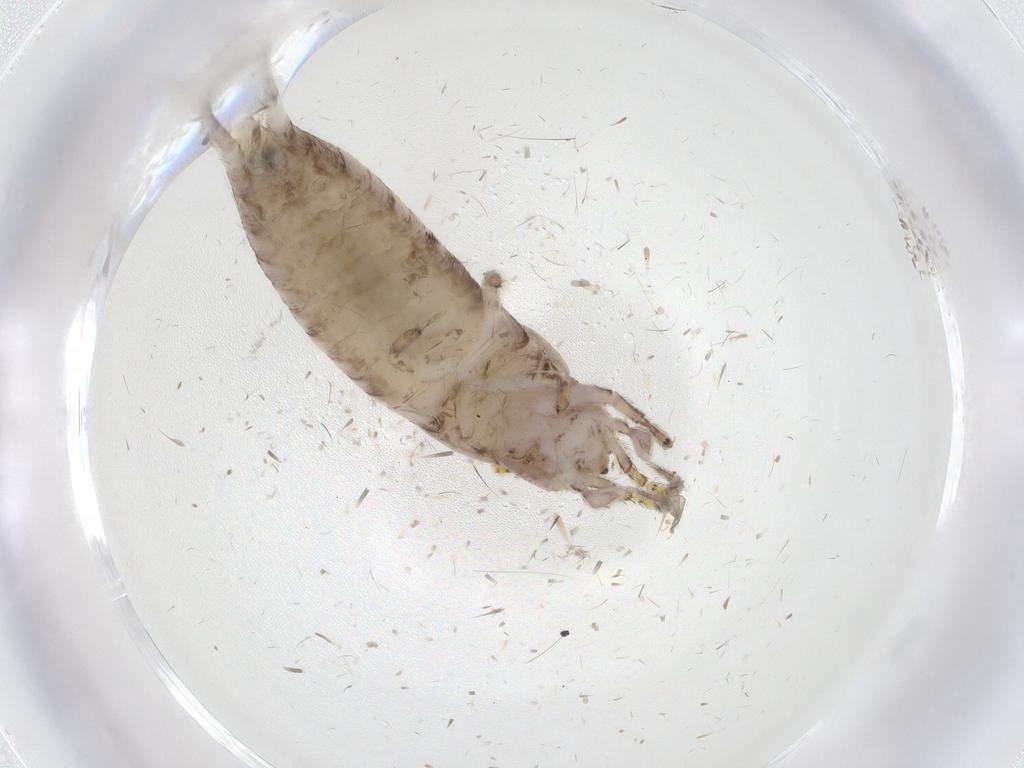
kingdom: Animalia
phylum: Arthropoda
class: Insecta
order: Archaeognatha
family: Machilidae
